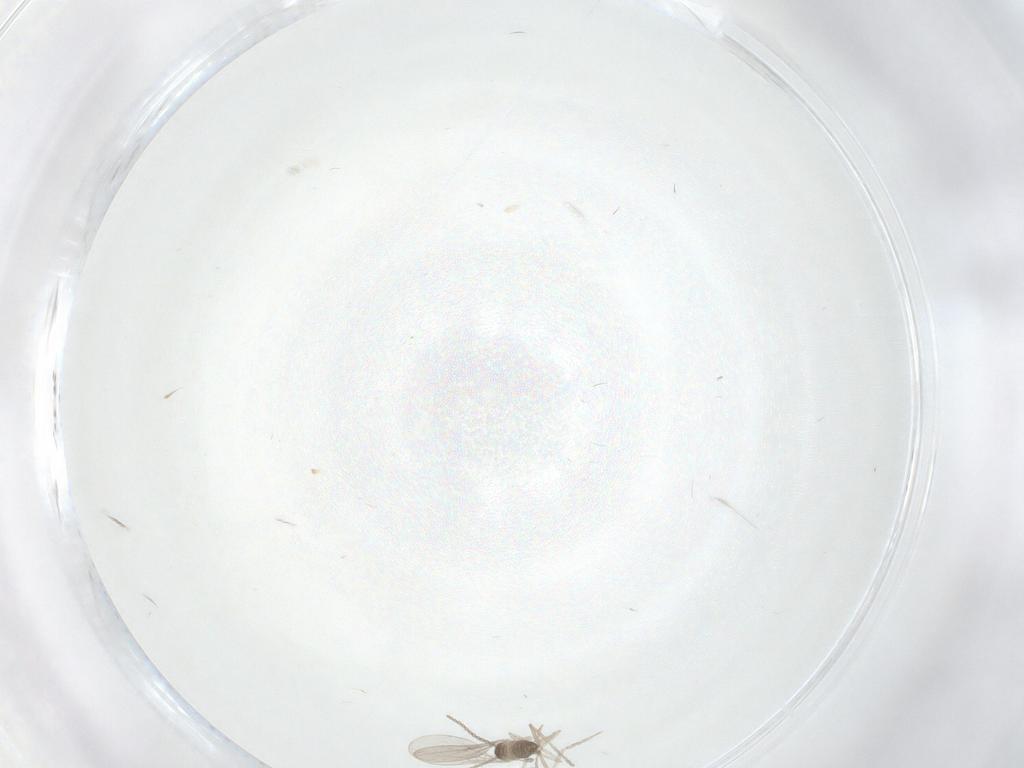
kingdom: Animalia
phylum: Arthropoda
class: Insecta
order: Diptera
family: Cecidomyiidae
